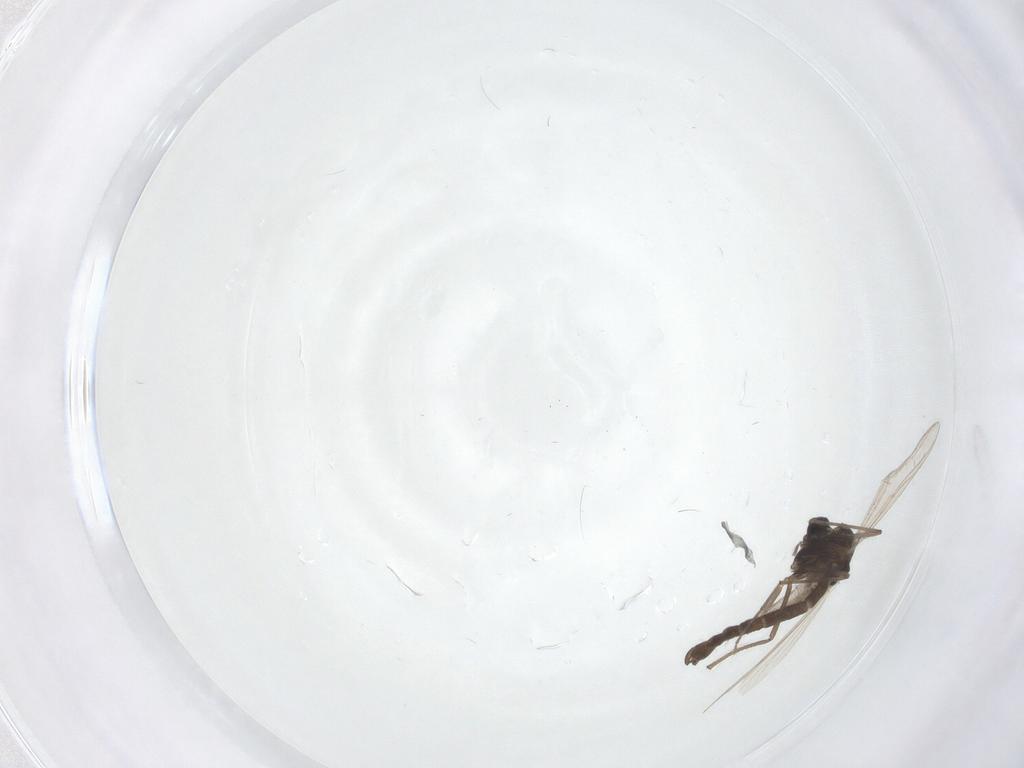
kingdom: Animalia
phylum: Arthropoda
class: Insecta
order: Diptera
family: Chironomidae
